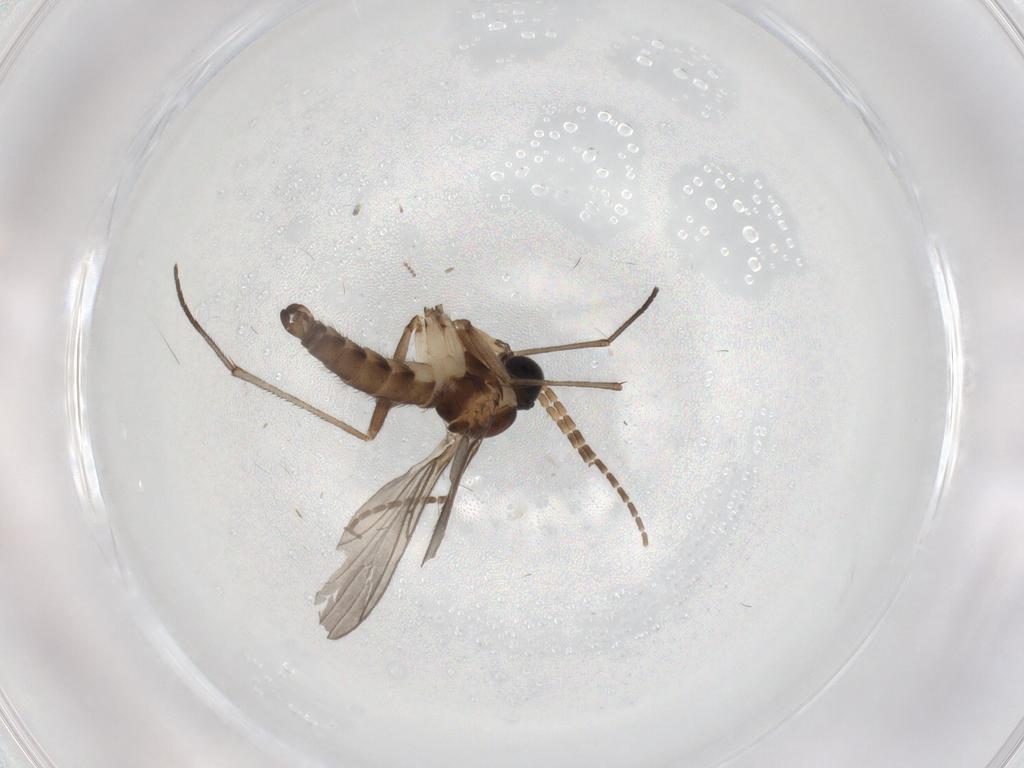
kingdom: Animalia
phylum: Arthropoda
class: Insecta
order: Diptera
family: Sciaridae
